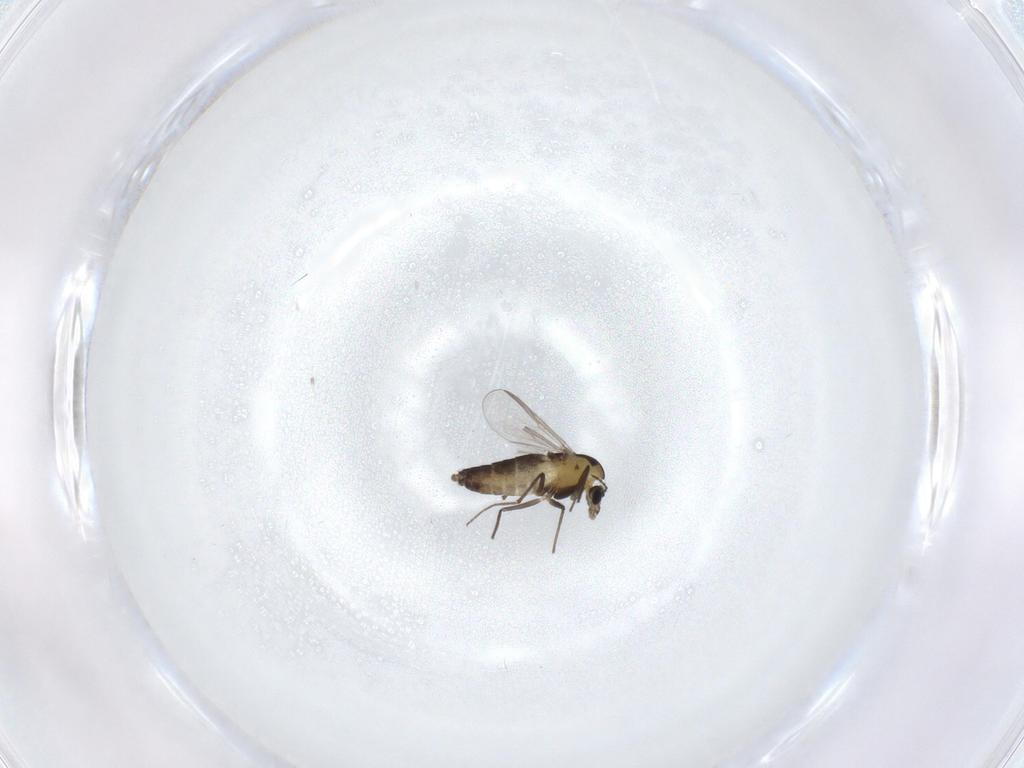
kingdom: Animalia
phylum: Arthropoda
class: Insecta
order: Diptera
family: Chironomidae
